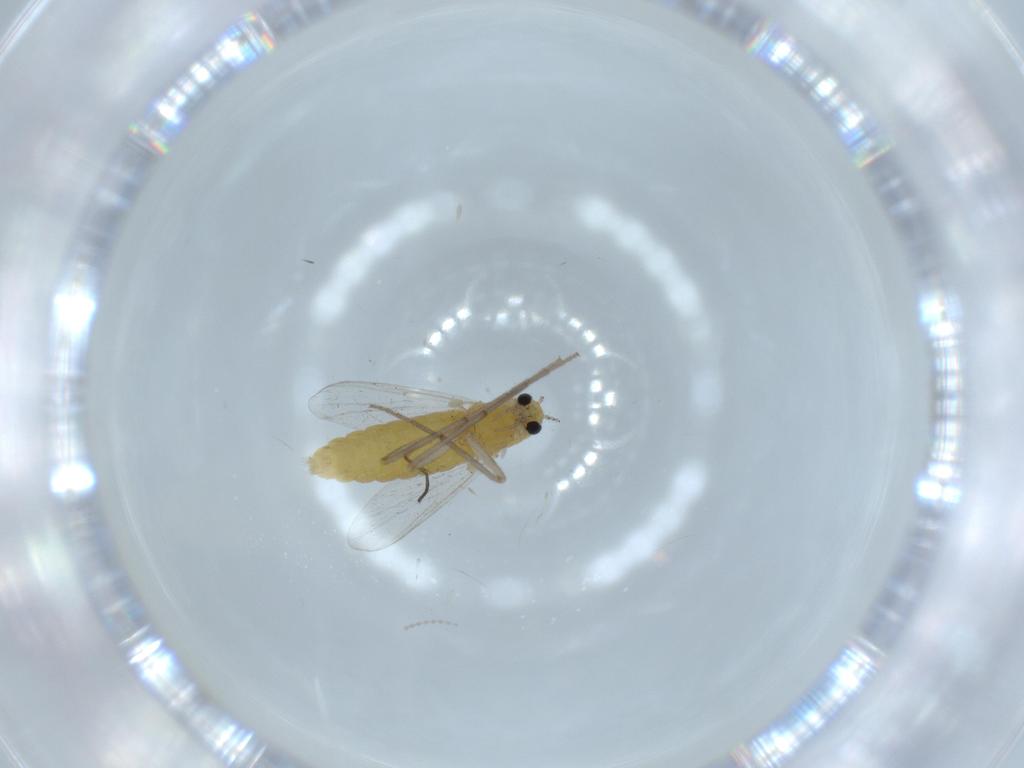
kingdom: Animalia
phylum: Arthropoda
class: Insecta
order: Diptera
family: Chironomidae
